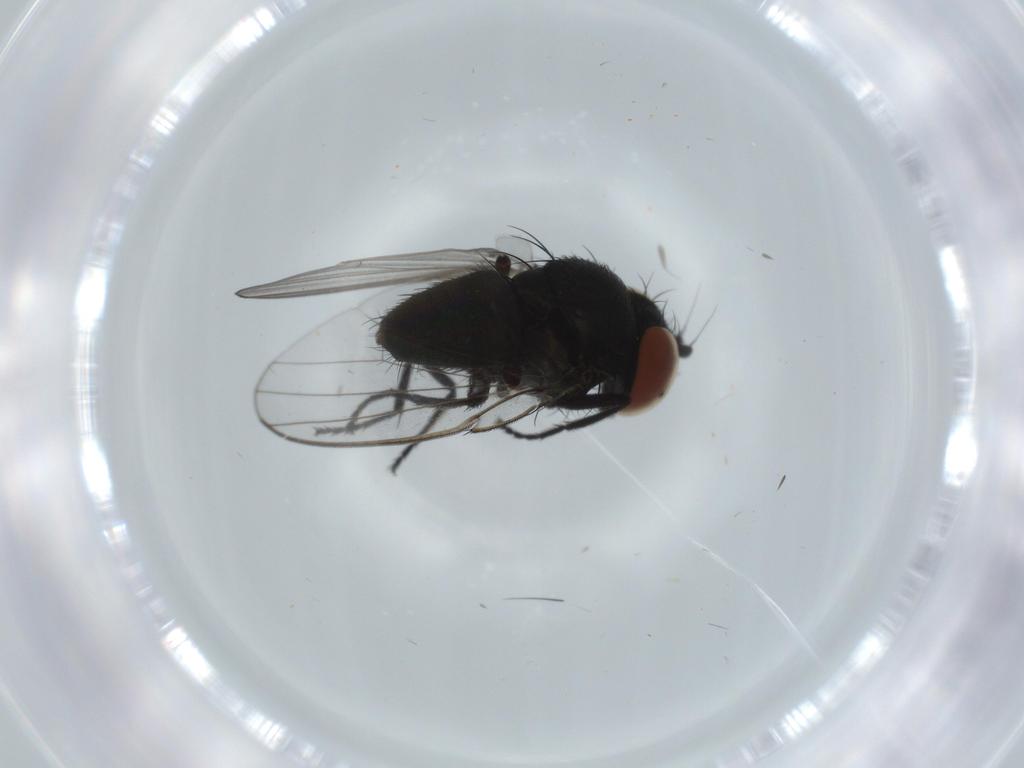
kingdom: Animalia
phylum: Arthropoda
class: Insecta
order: Diptera
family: Milichiidae
